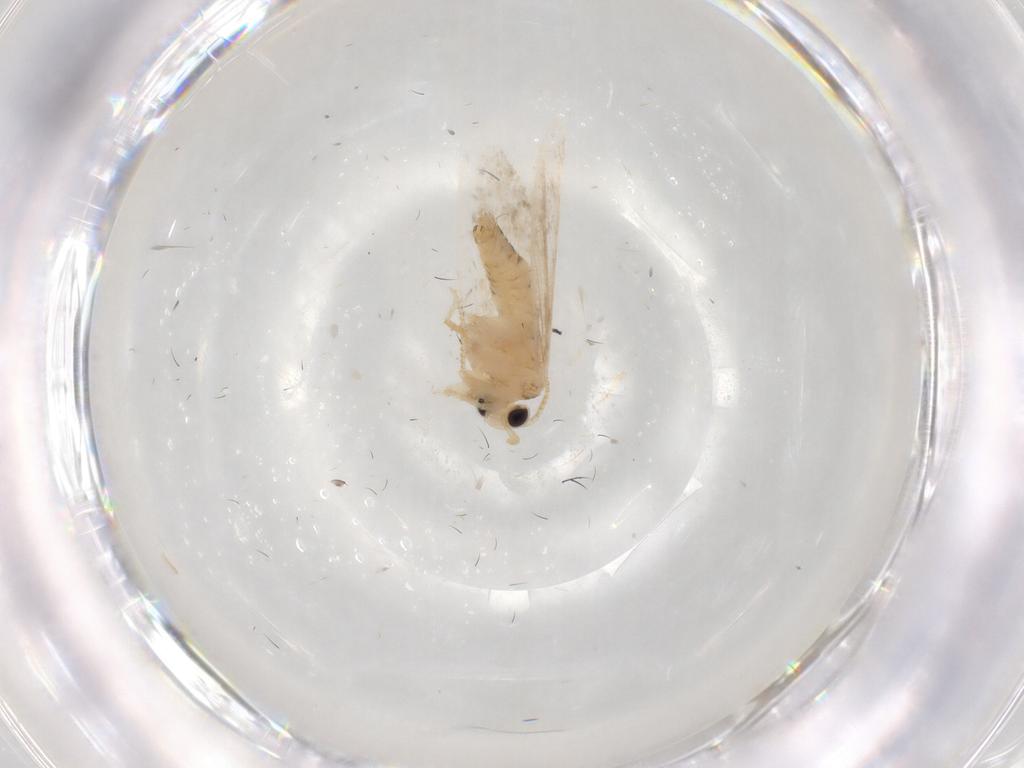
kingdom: Animalia
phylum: Arthropoda
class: Insecta
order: Lepidoptera
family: Psychidae
